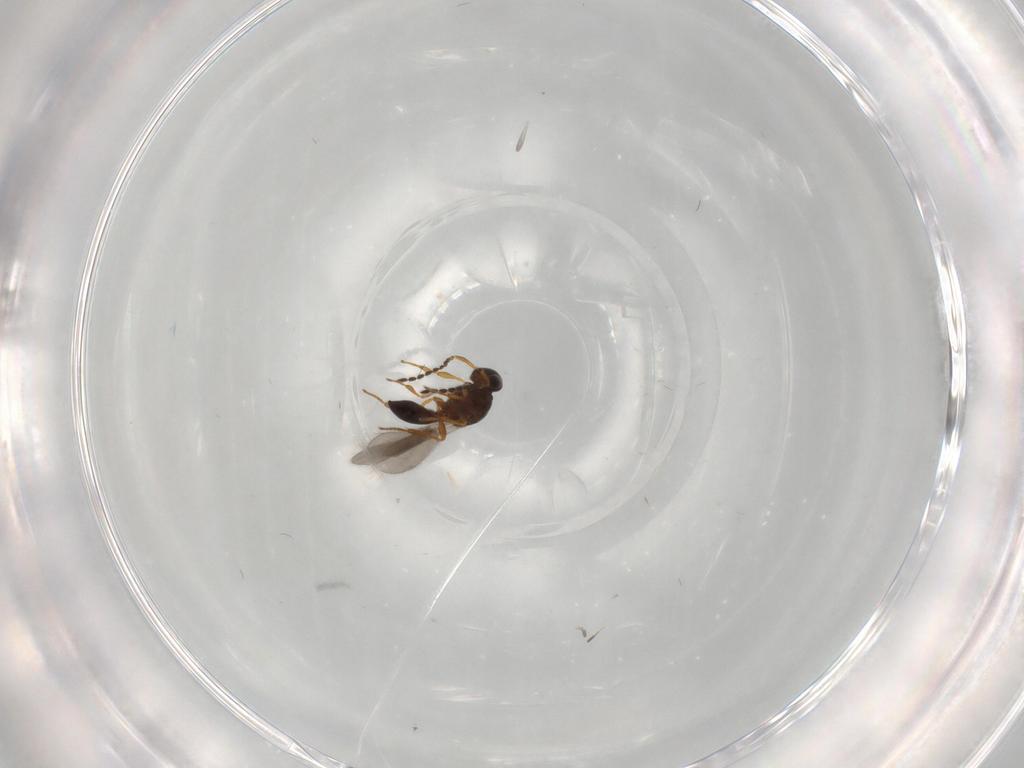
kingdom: Animalia
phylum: Arthropoda
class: Insecta
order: Hymenoptera
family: Platygastridae
